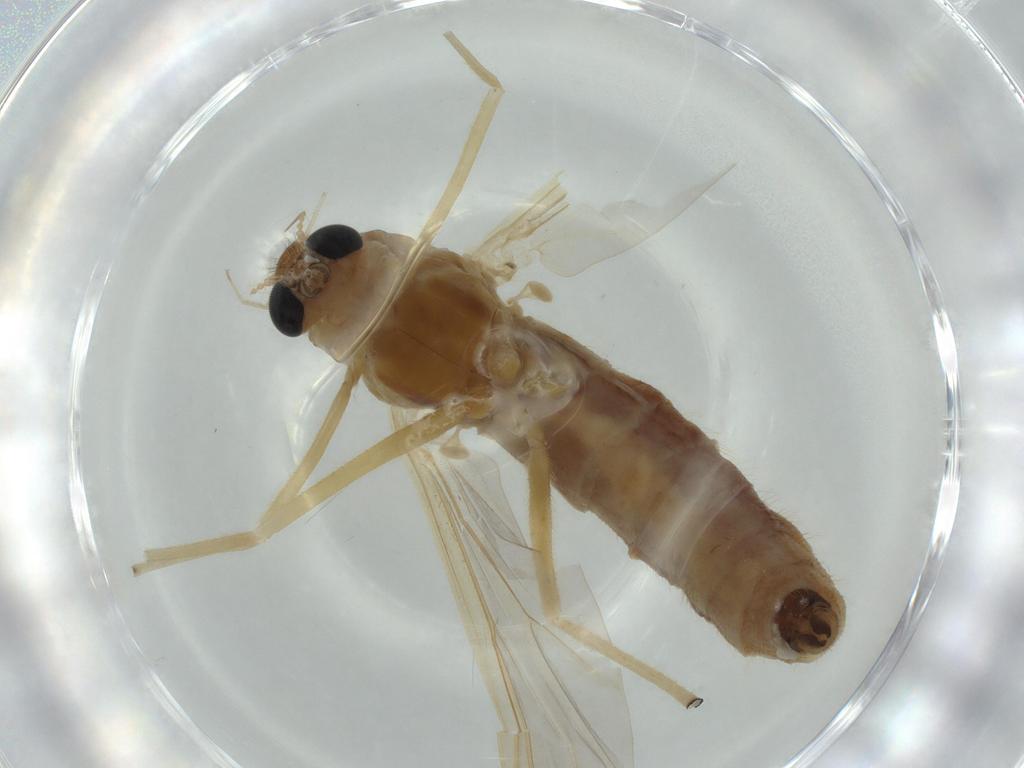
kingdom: Animalia
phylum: Arthropoda
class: Insecta
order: Diptera
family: Chironomidae
